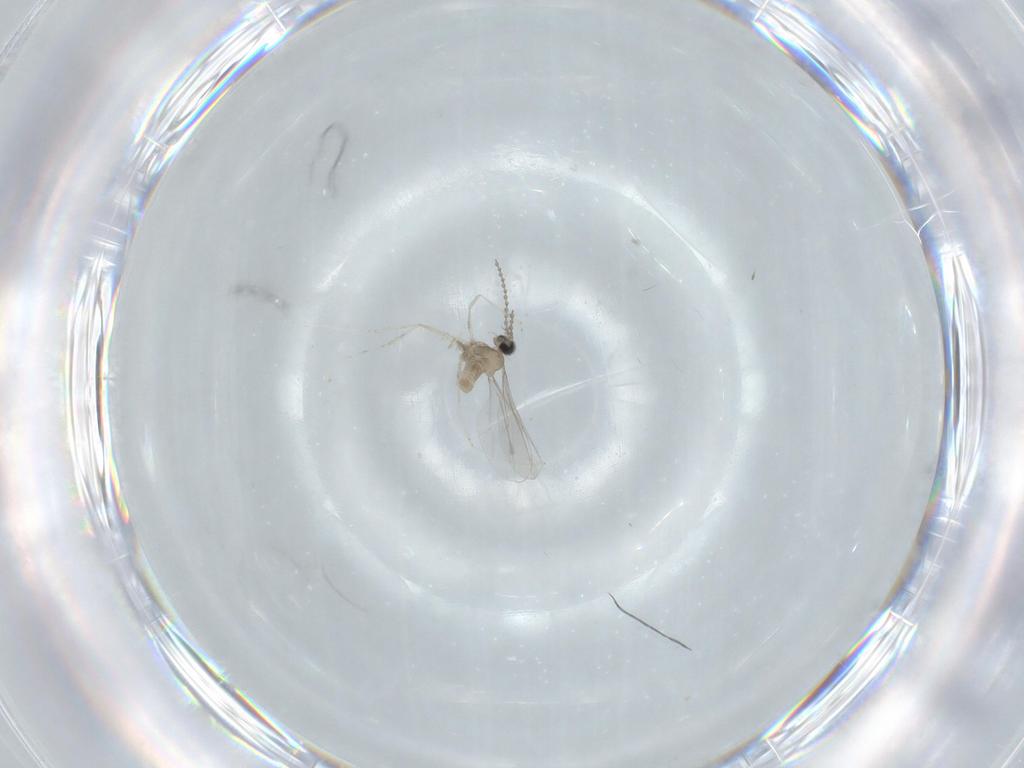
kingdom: Animalia
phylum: Arthropoda
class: Insecta
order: Diptera
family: Cecidomyiidae
